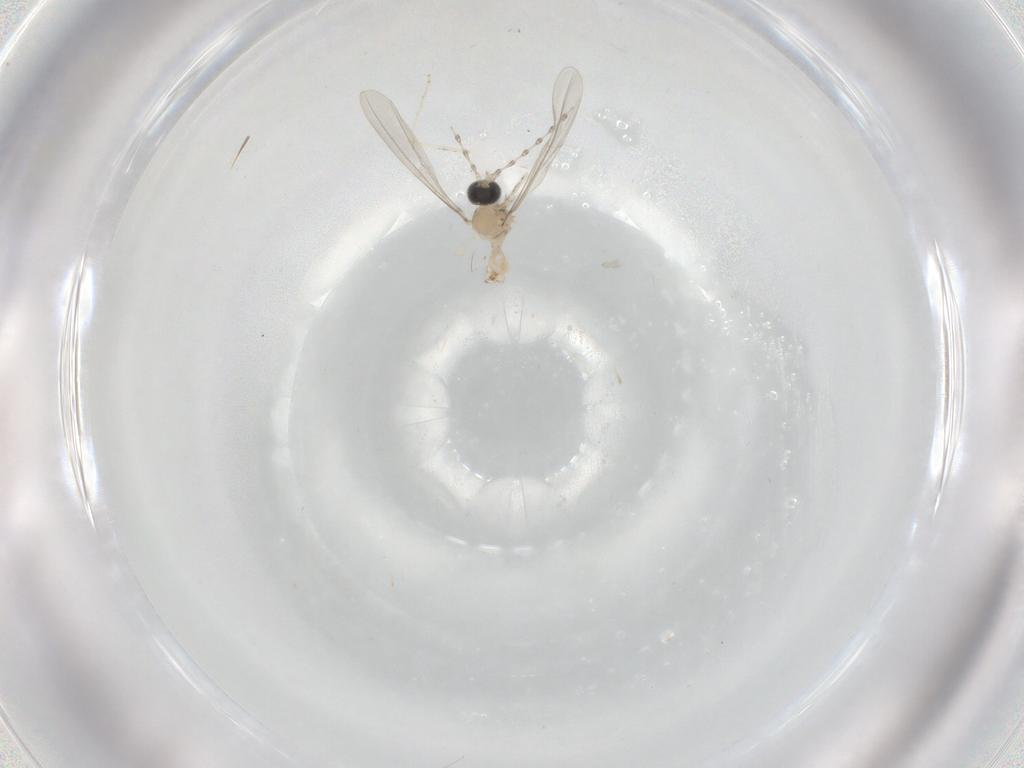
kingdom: Animalia
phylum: Arthropoda
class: Insecta
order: Diptera
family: Cecidomyiidae
